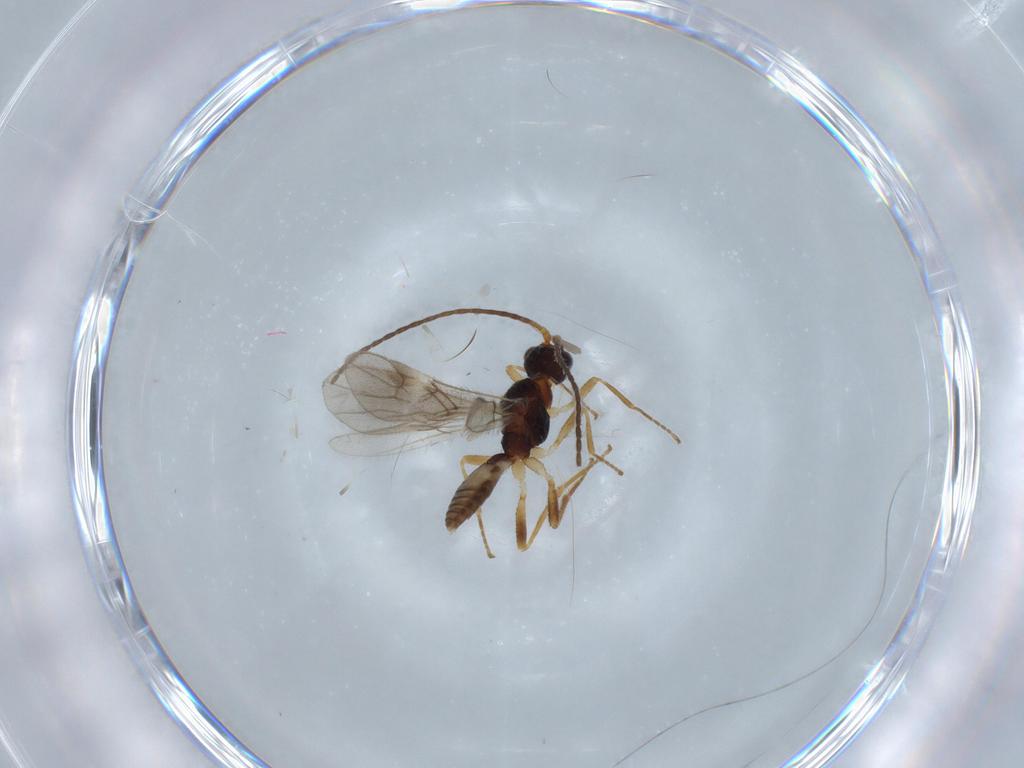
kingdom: Animalia
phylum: Arthropoda
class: Insecta
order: Hymenoptera
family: Braconidae
